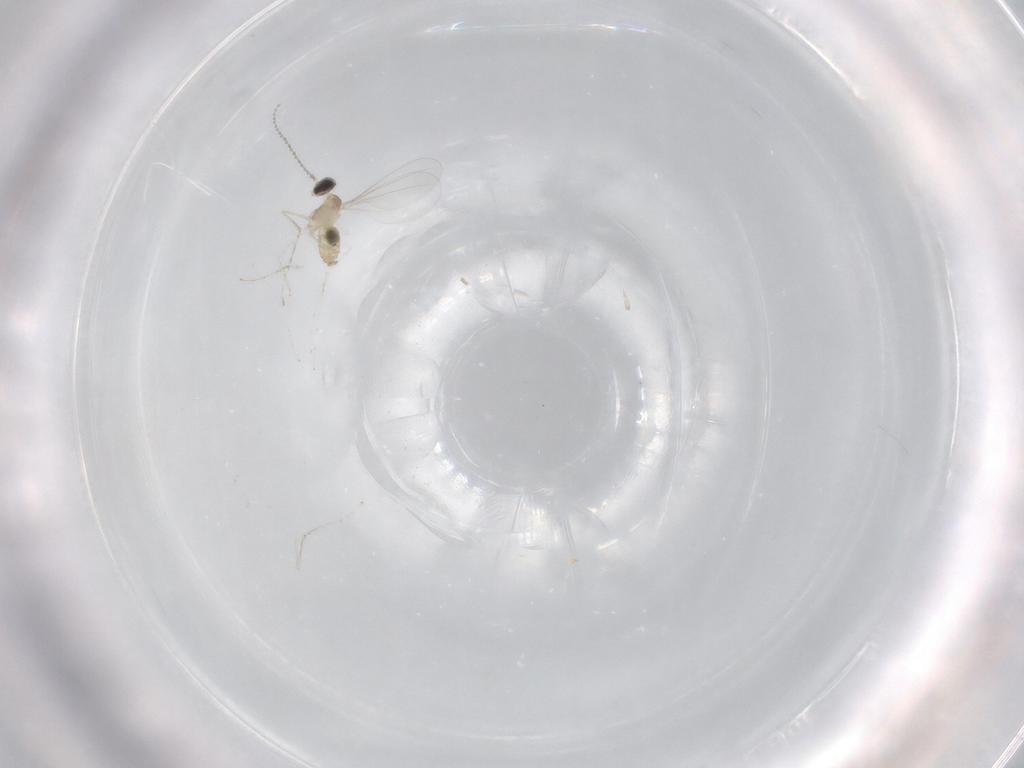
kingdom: Animalia
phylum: Arthropoda
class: Insecta
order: Diptera
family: Cecidomyiidae
